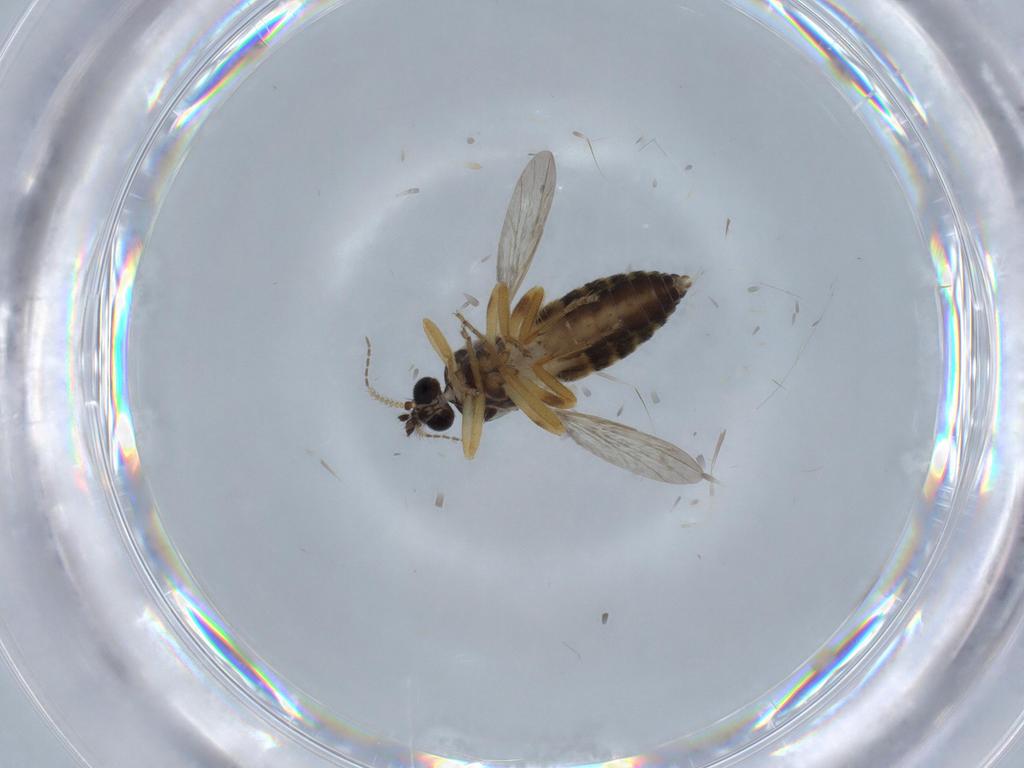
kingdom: Animalia
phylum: Arthropoda
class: Insecta
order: Diptera
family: Ceratopogonidae
